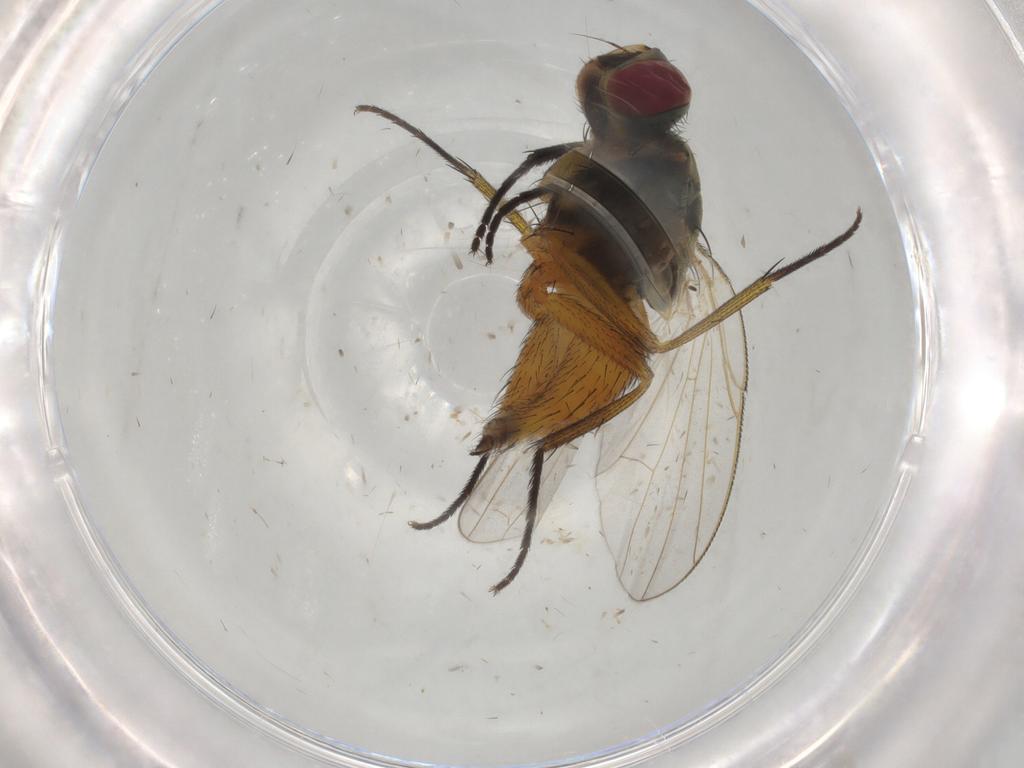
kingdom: Animalia
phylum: Arthropoda
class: Insecta
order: Diptera
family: Muscidae
